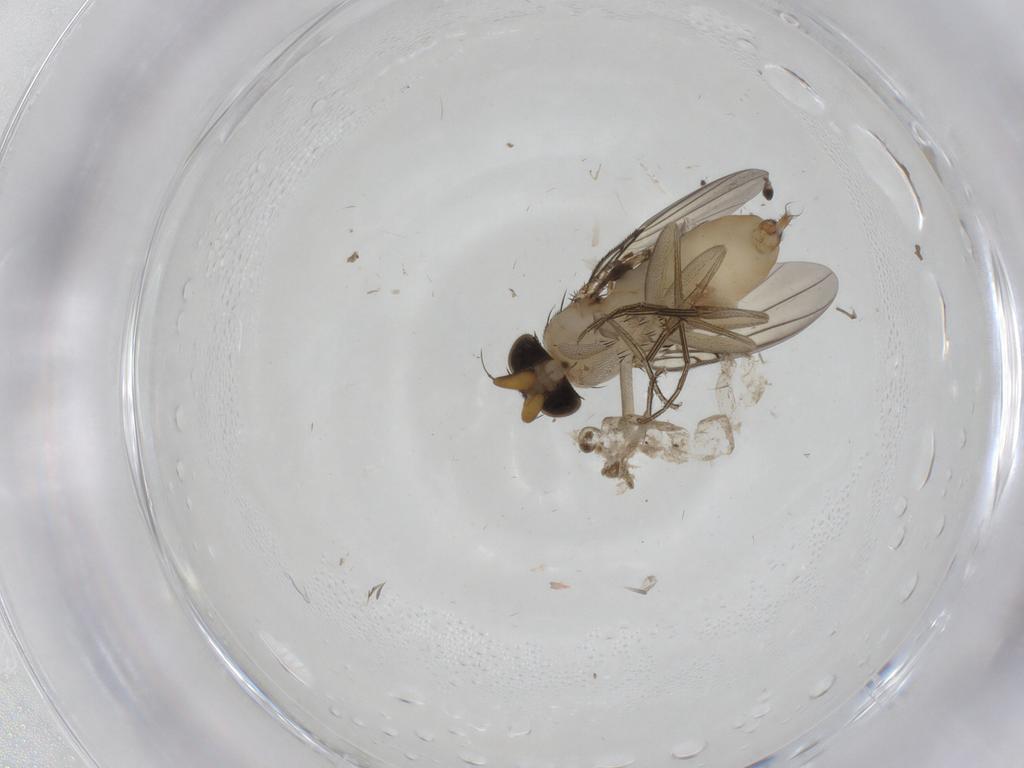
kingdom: Animalia
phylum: Arthropoda
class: Insecta
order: Diptera
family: Phoridae
